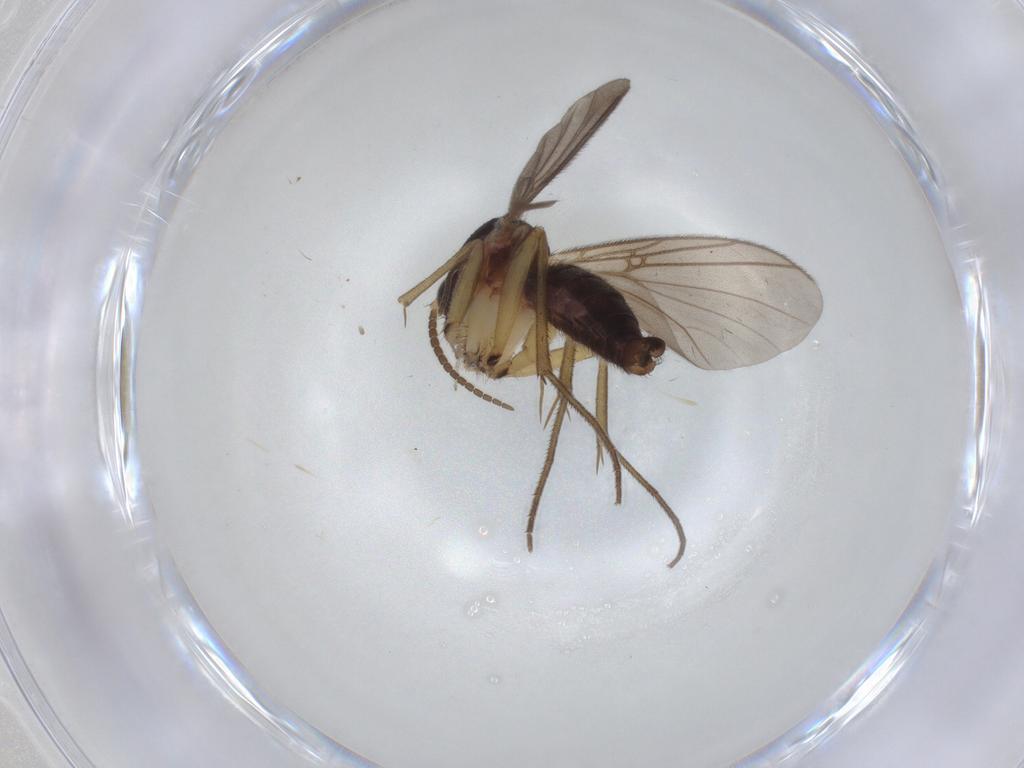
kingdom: Animalia
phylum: Arthropoda
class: Insecta
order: Diptera
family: Mycetophilidae
